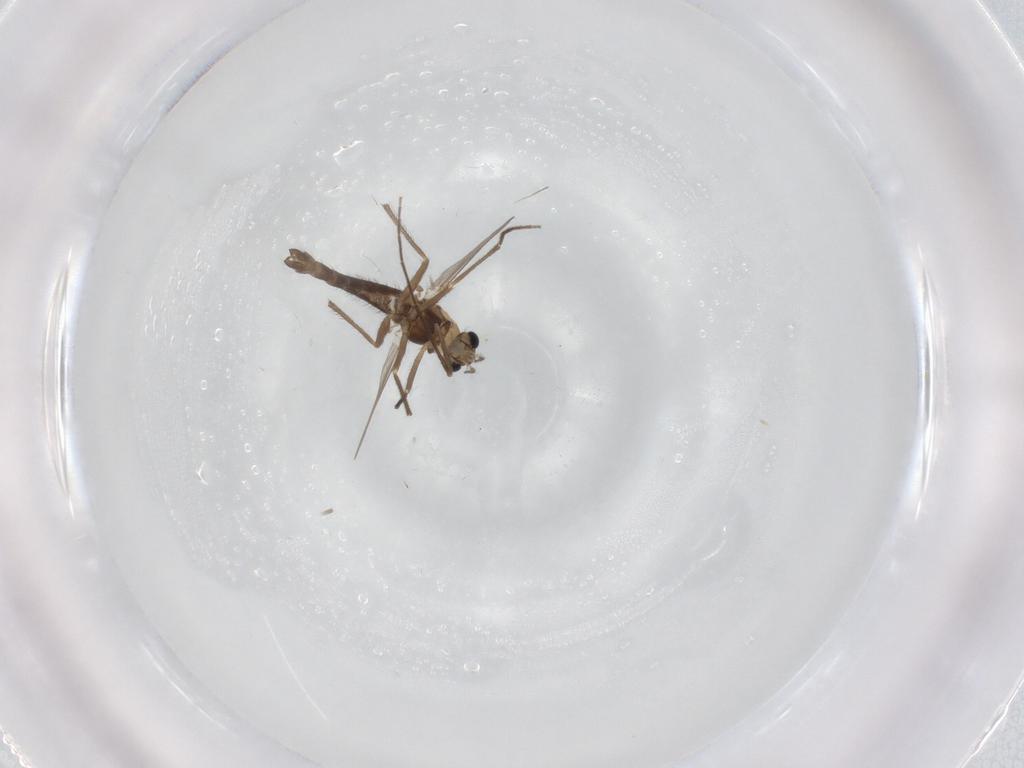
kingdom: Animalia
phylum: Arthropoda
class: Insecta
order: Diptera
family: Chironomidae
